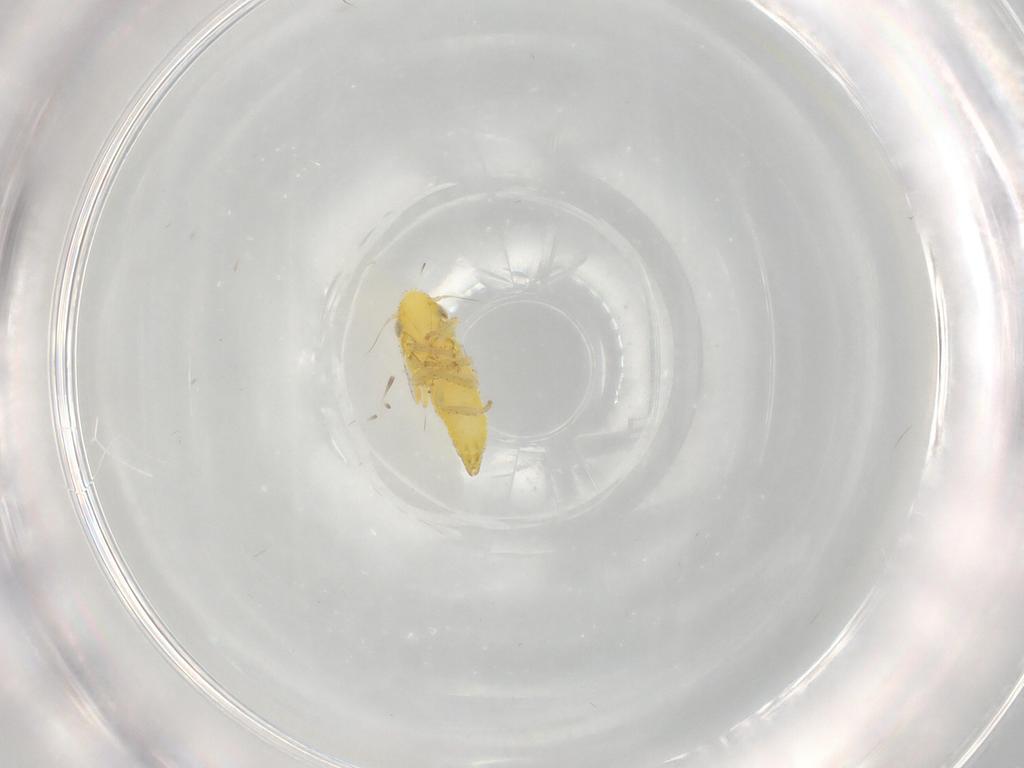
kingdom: Animalia
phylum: Arthropoda
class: Insecta
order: Hemiptera
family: Cicadellidae
